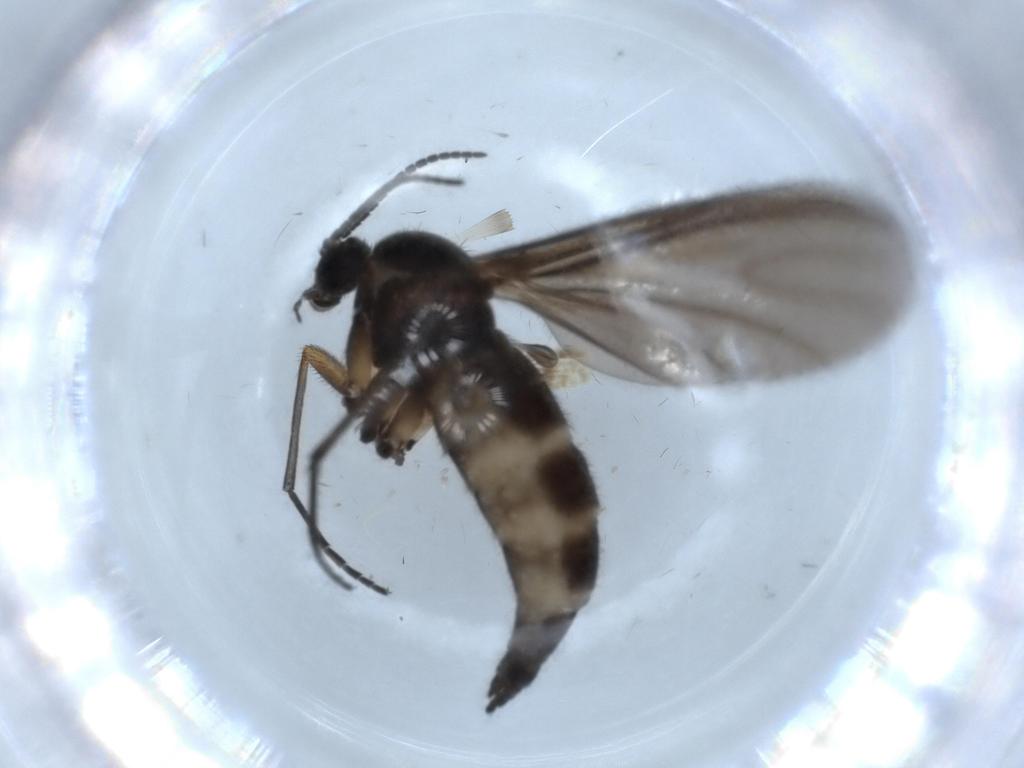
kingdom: Animalia
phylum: Arthropoda
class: Insecta
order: Diptera
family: Sciaridae
